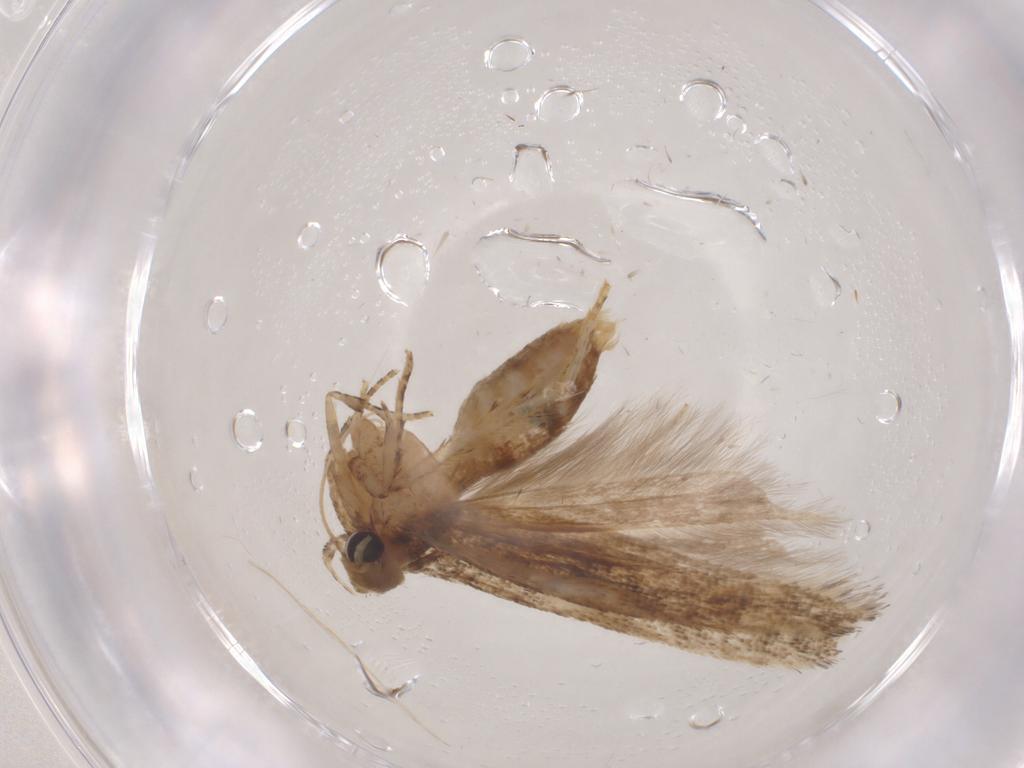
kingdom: Animalia
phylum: Arthropoda
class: Insecta
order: Lepidoptera
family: Gelechiidae
